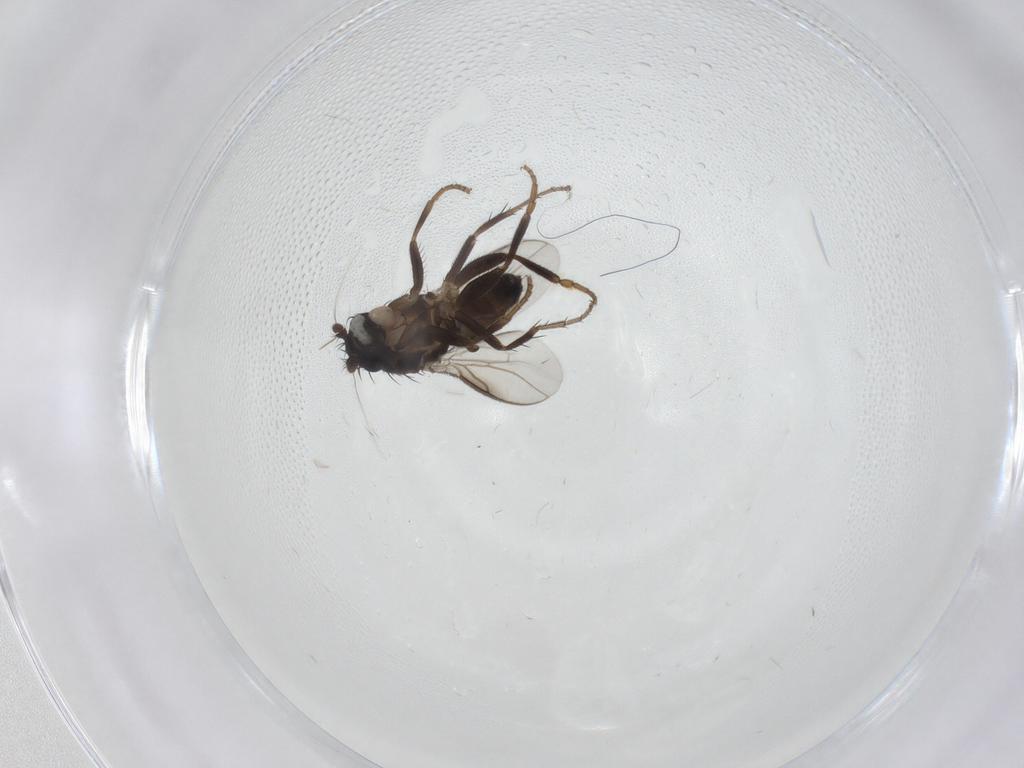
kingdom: Animalia
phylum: Arthropoda
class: Insecta
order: Diptera
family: Sphaeroceridae
